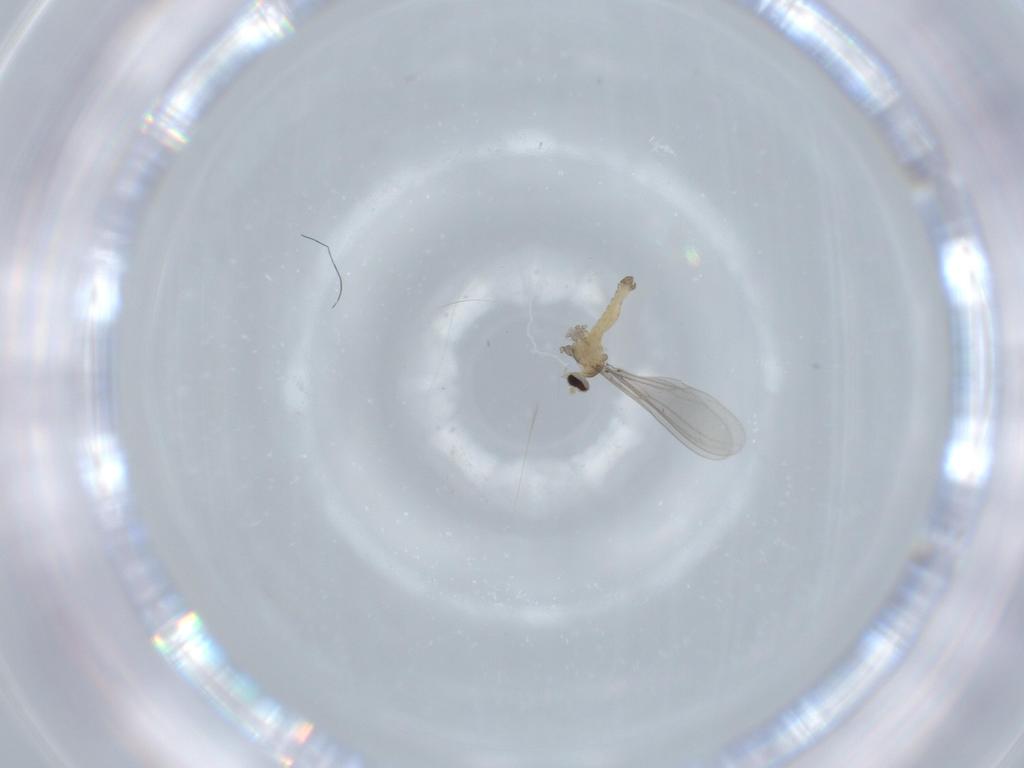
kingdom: Animalia
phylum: Arthropoda
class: Insecta
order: Diptera
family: Cecidomyiidae
